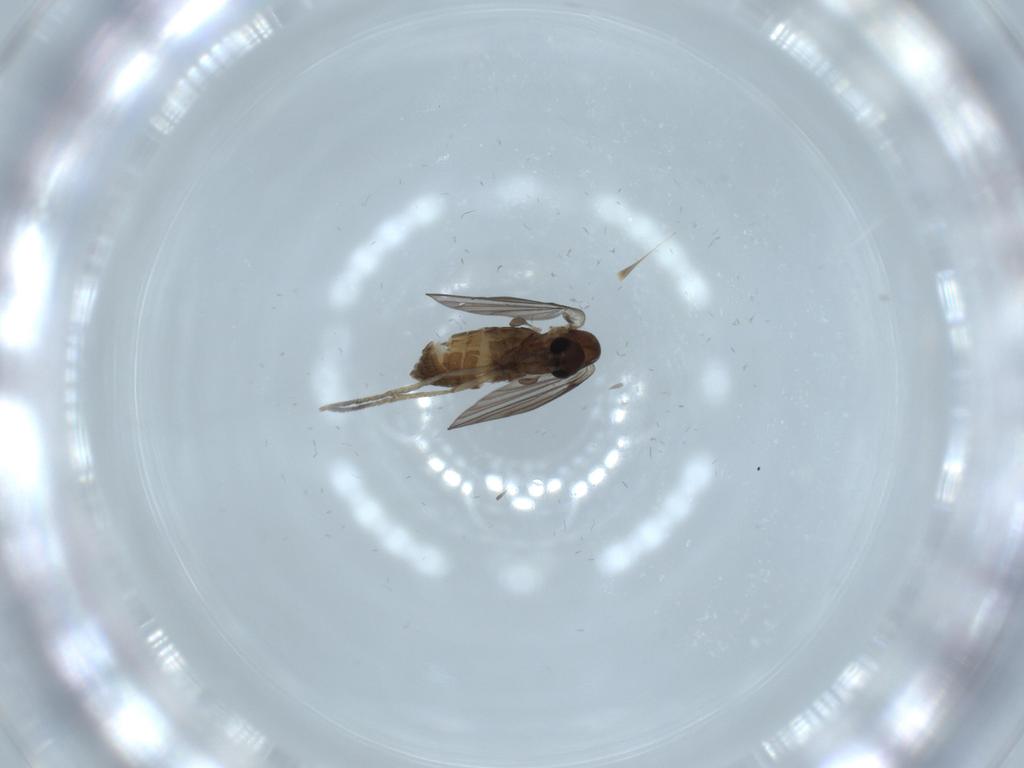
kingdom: Animalia
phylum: Arthropoda
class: Insecta
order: Diptera
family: Psychodidae
